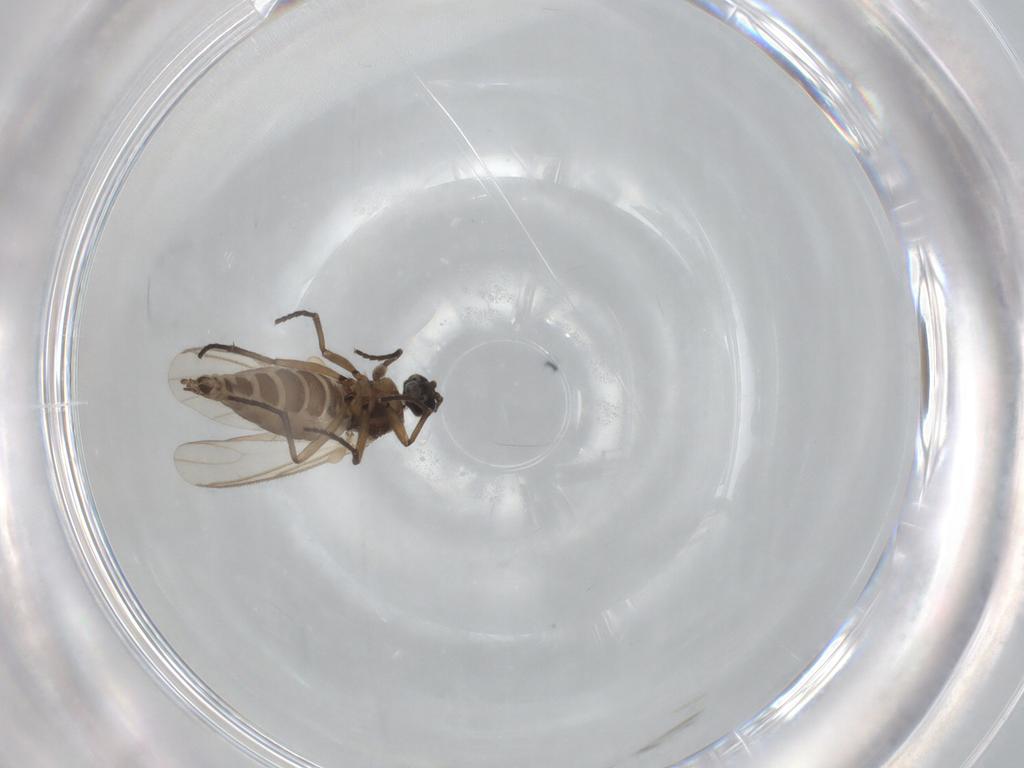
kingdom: Animalia
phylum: Arthropoda
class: Insecta
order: Diptera
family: Sciaridae
